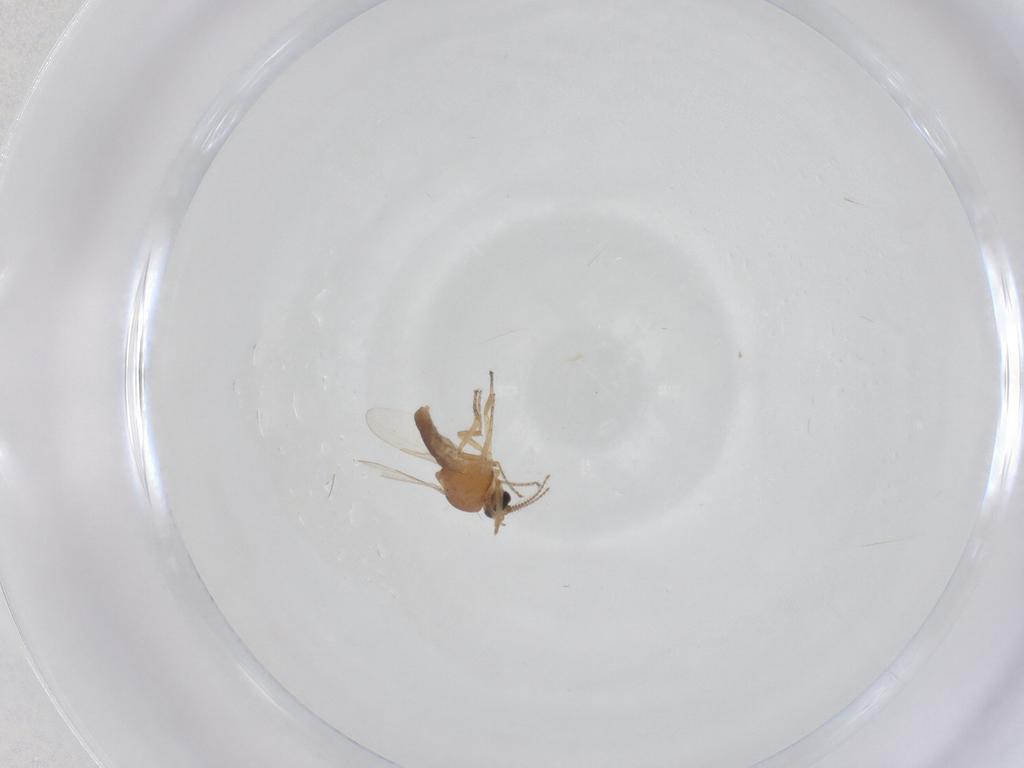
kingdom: Animalia
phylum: Arthropoda
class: Insecta
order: Diptera
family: Ceratopogonidae
